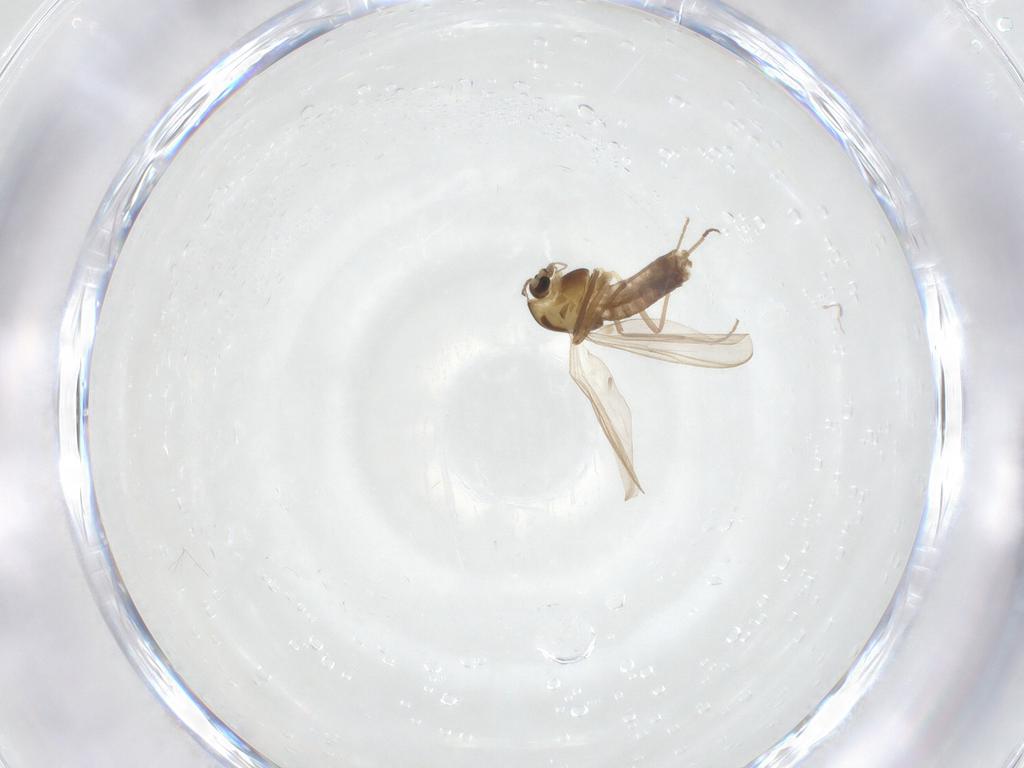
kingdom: Animalia
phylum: Arthropoda
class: Insecta
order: Diptera
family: Chironomidae
